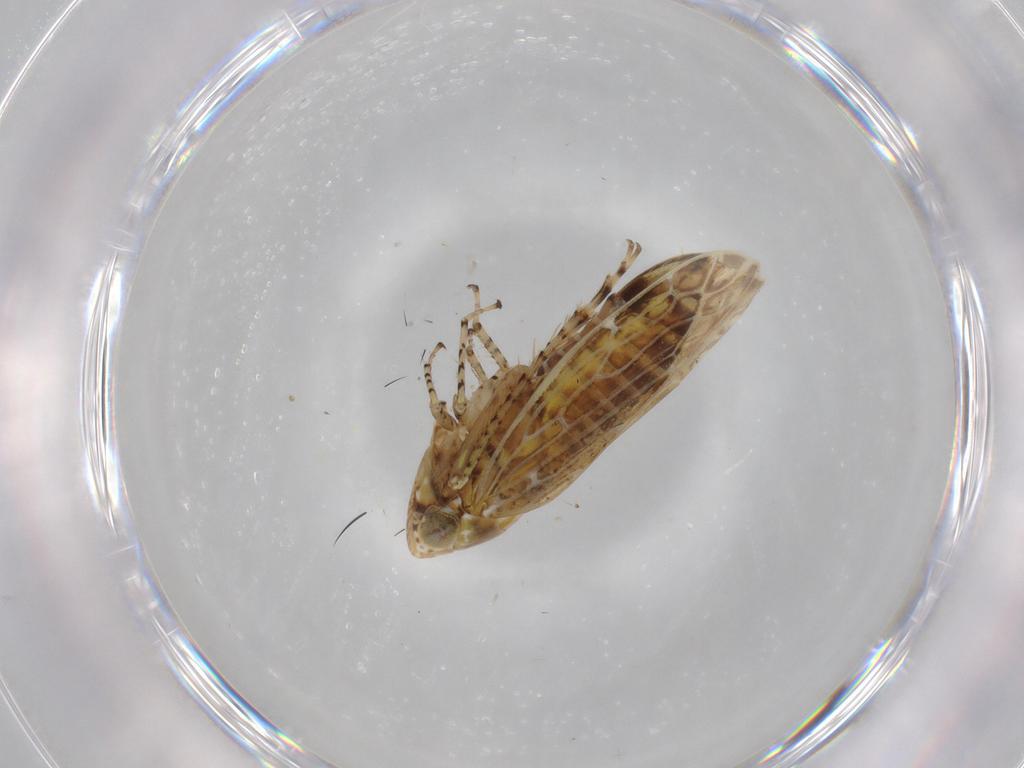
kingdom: Animalia
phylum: Arthropoda
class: Insecta
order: Hemiptera
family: Cicadellidae
